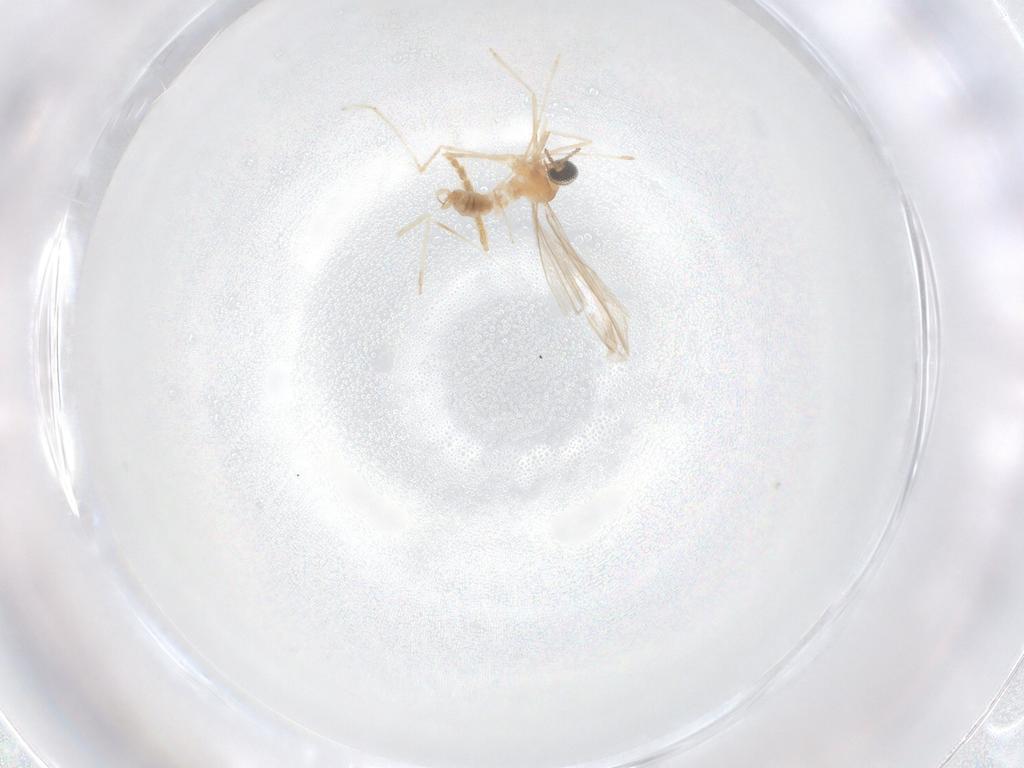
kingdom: Animalia
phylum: Arthropoda
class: Insecta
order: Diptera
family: Cecidomyiidae
